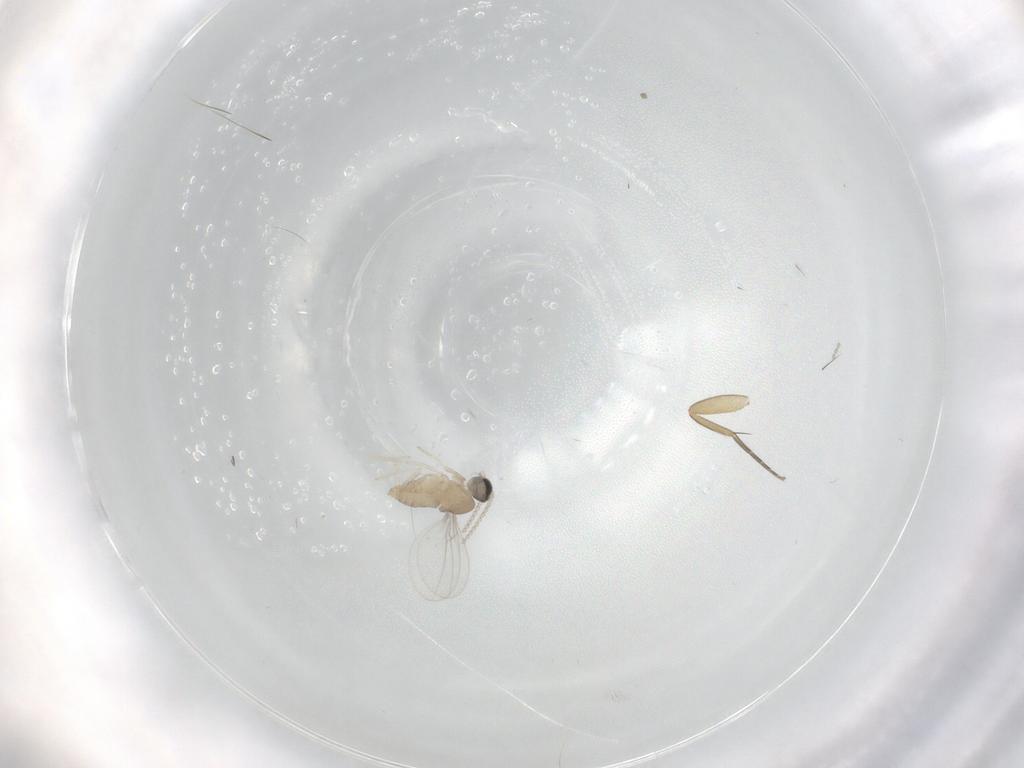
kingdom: Animalia
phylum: Arthropoda
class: Insecta
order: Diptera
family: Cecidomyiidae
